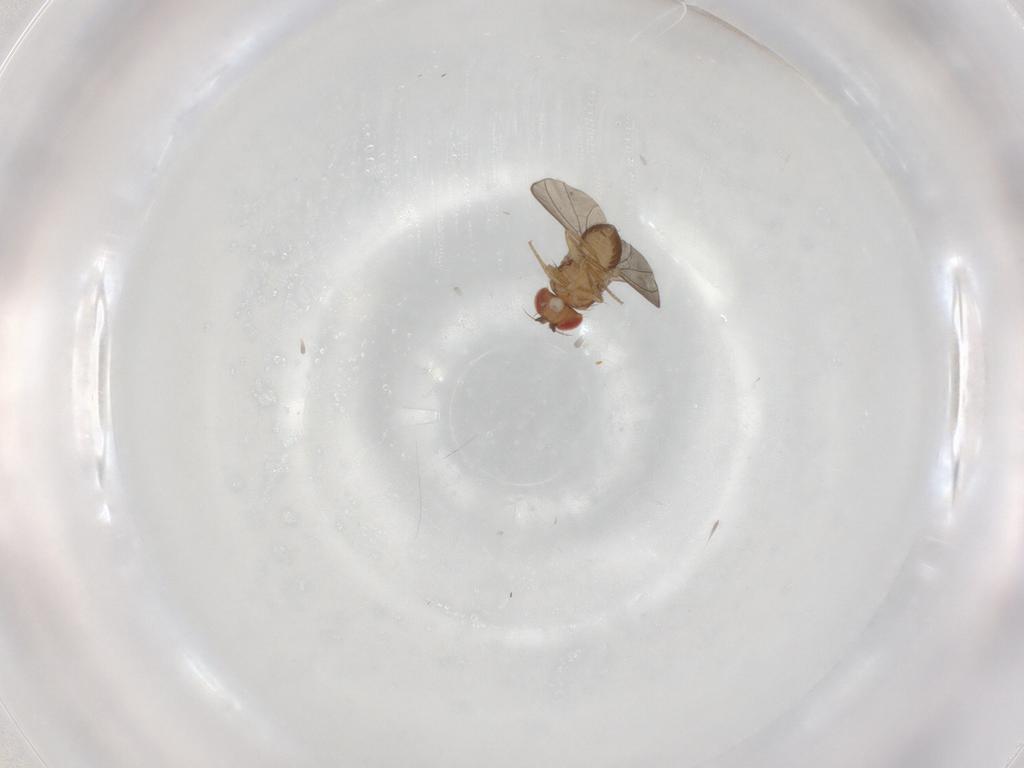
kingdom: Animalia
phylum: Arthropoda
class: Insecta
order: Diptera
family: Drosophilidae
